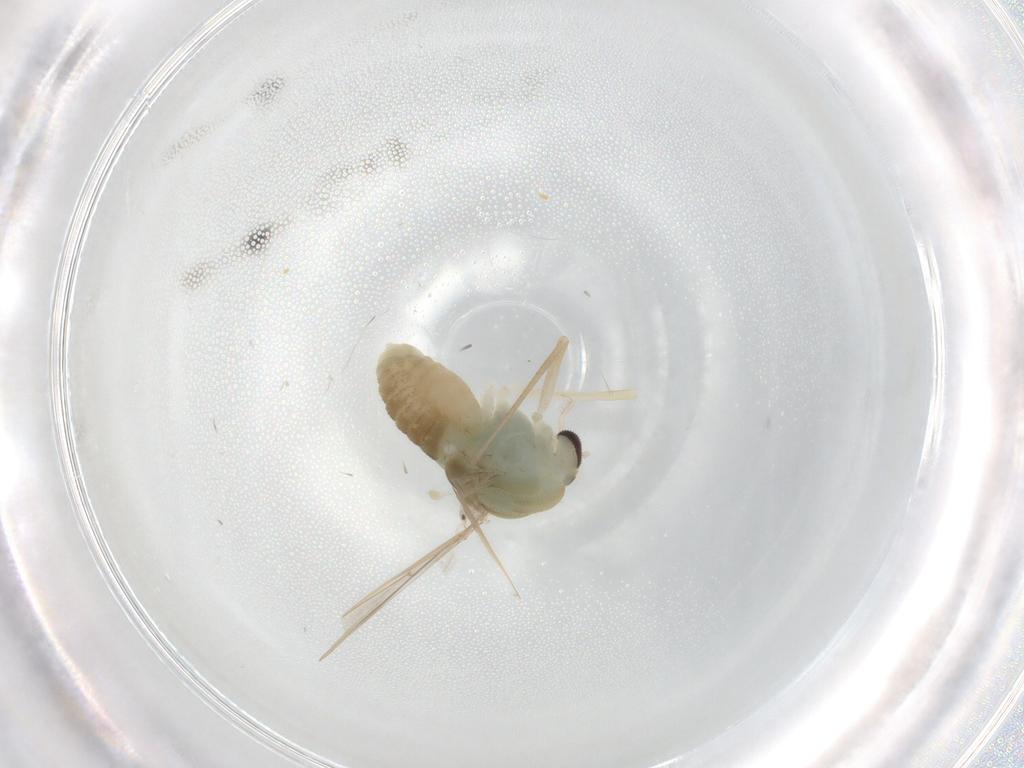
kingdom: Animalia
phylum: Arthropoda
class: Insecta
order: Diptera
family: Chironomidae
